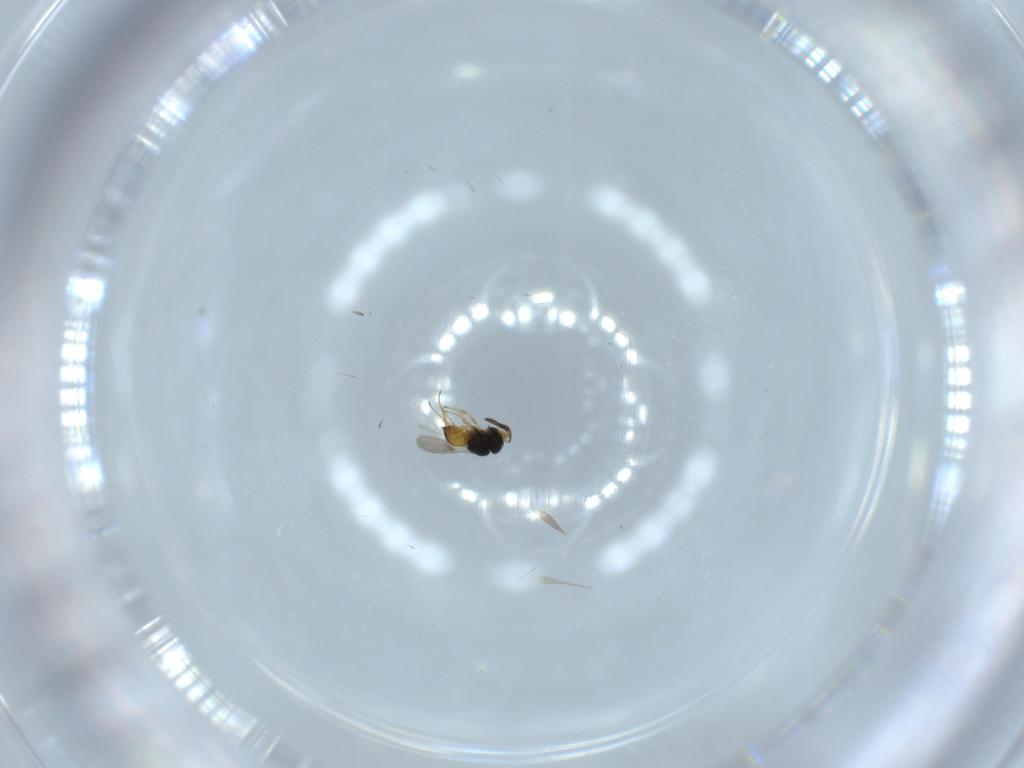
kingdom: Animalia
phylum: Arthropoda
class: Insecta
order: Hymenoptera
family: Scelionidae
